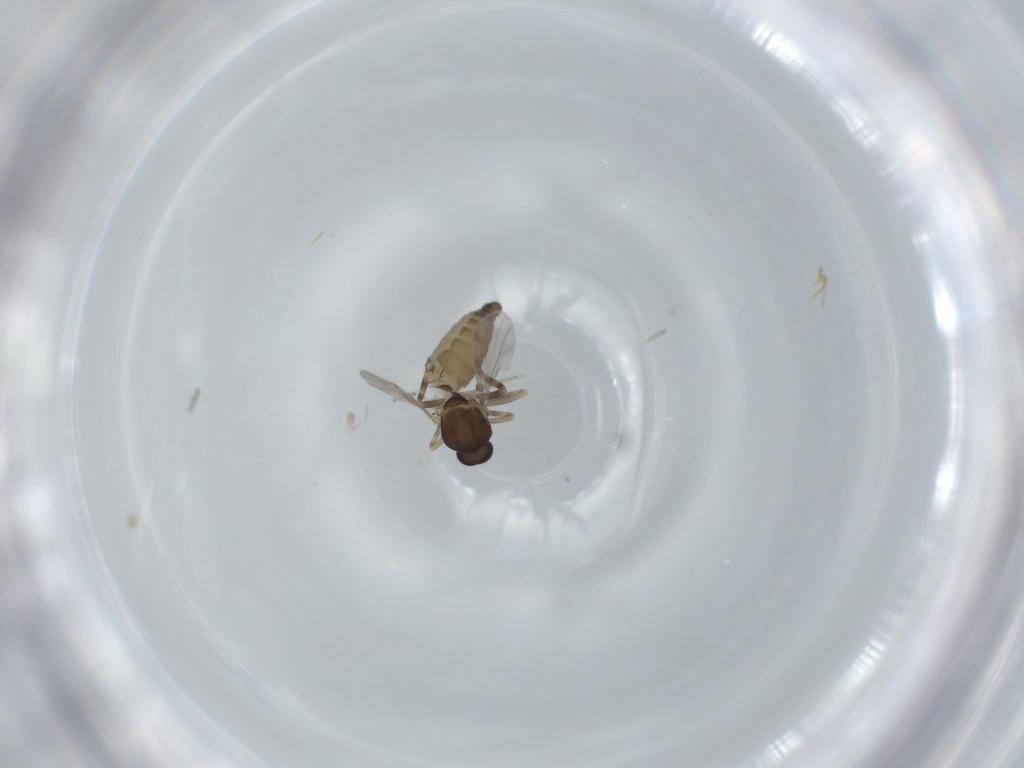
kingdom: Animalia
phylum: Arthropoda
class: Insecta
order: Diptera
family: Ceratopogonidae
